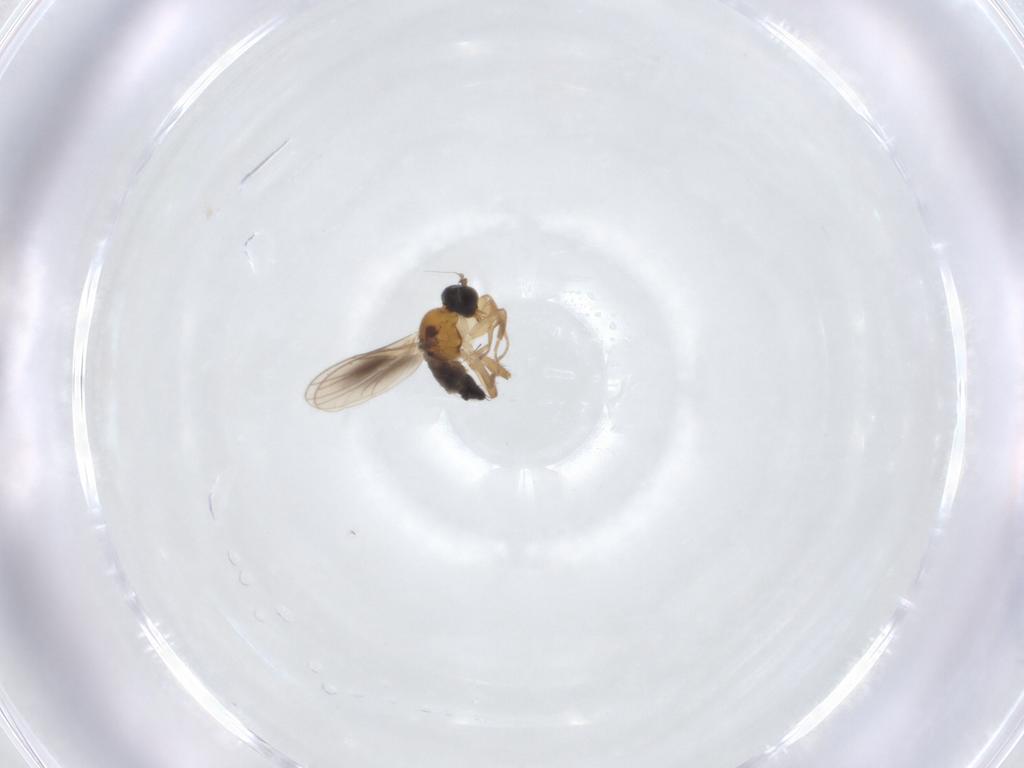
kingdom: Animalia
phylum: Arthropoda
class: Insecta
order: Diptera
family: Hybotidae
